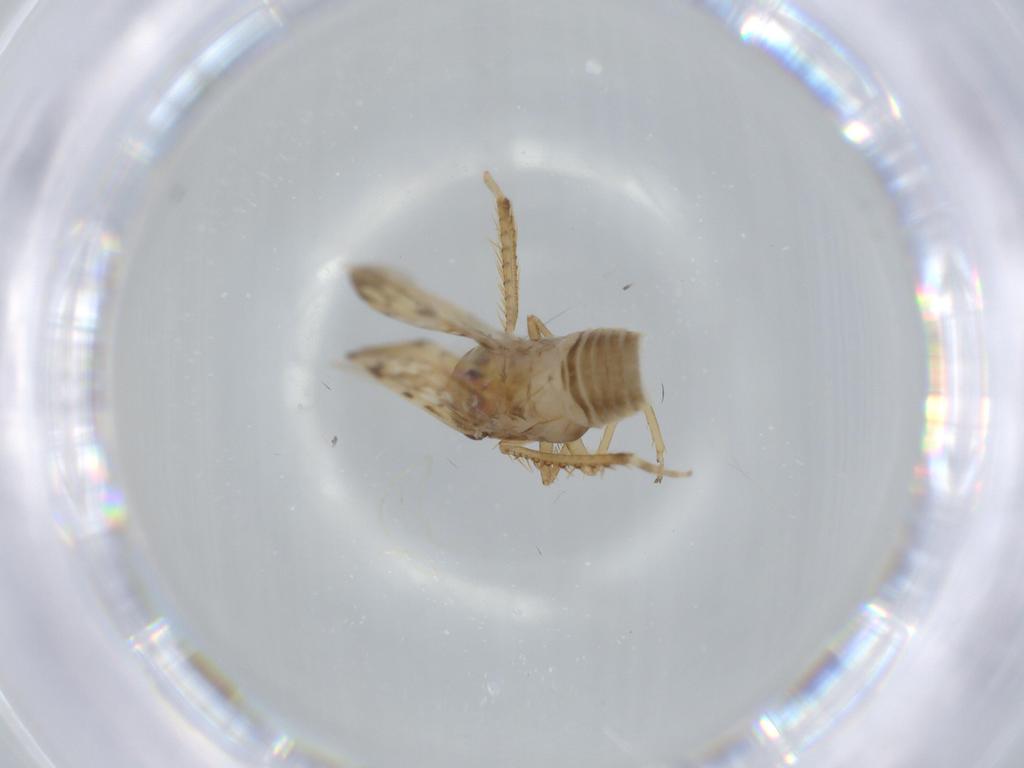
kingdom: Animalia
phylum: Arthropoda
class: Insecta
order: Hemiptera
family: Cicadellidae
